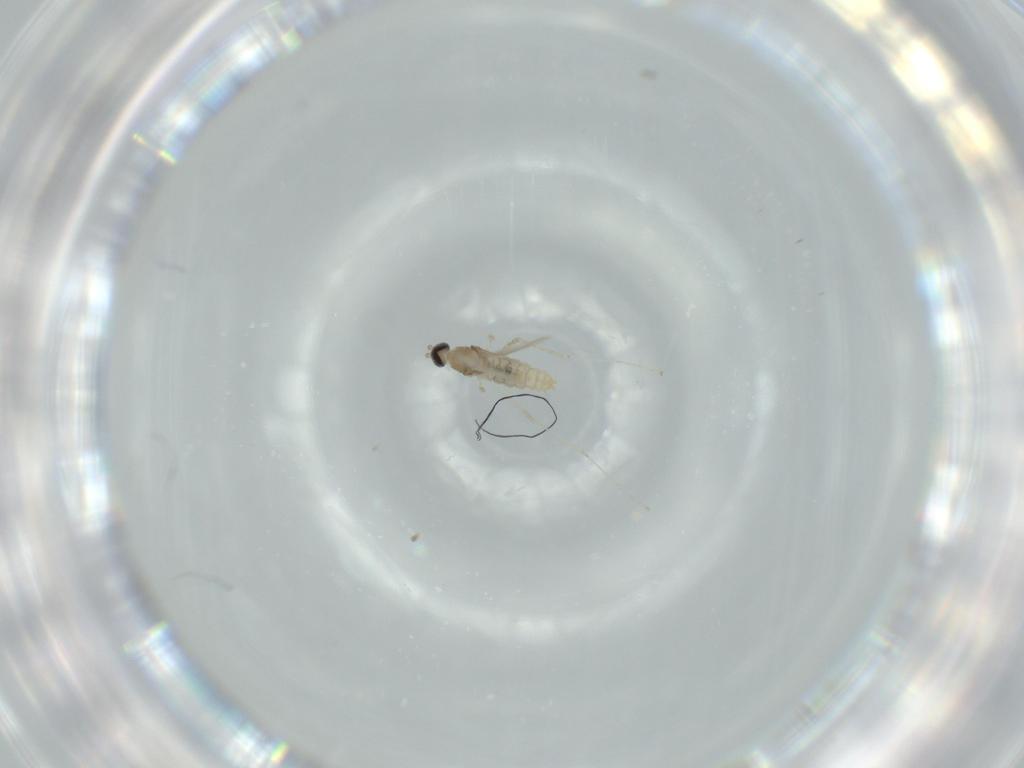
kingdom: Animalia
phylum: Arthropoda
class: Insecta
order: Diptera
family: Cecidomyiidae
